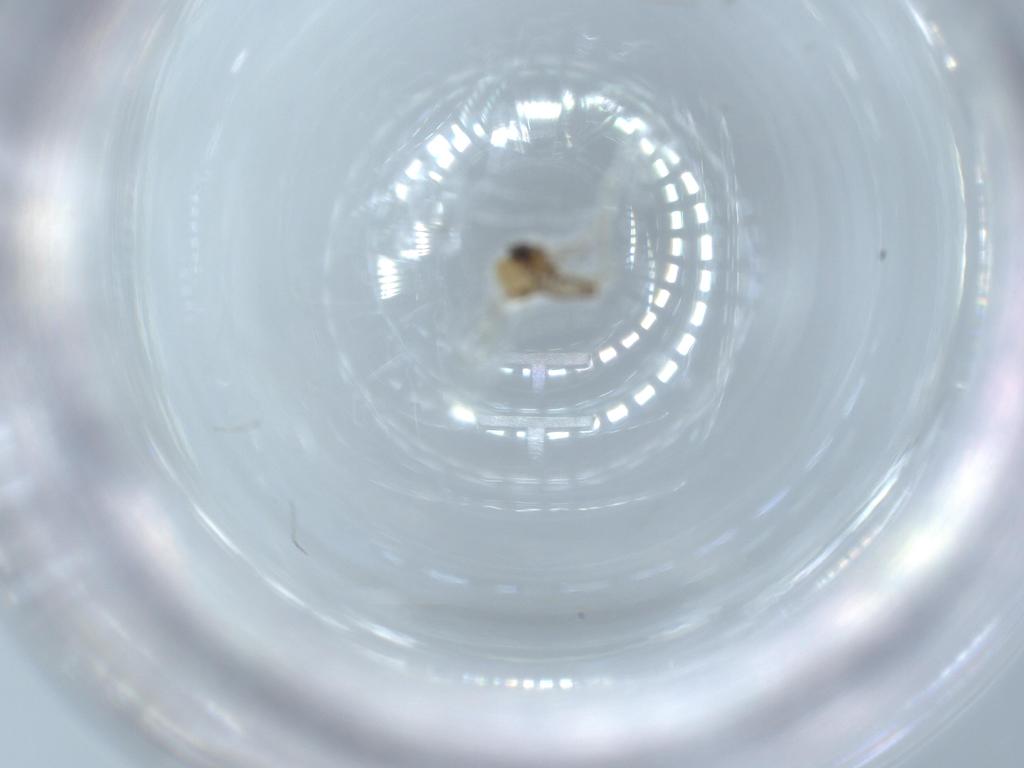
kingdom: Animalia
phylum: Arthropoda
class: Insecta
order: Diptera
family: Ceratopogonidae
